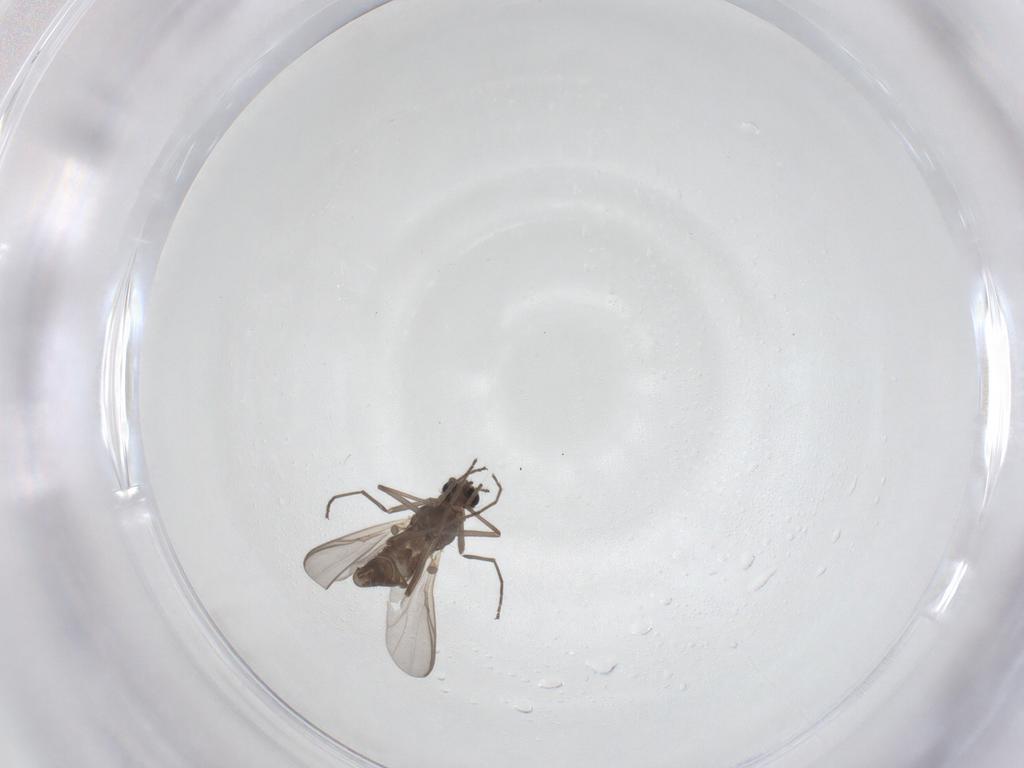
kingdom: Animalia
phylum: Arthropoda
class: Insecta
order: Diptera
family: Chironomidae
